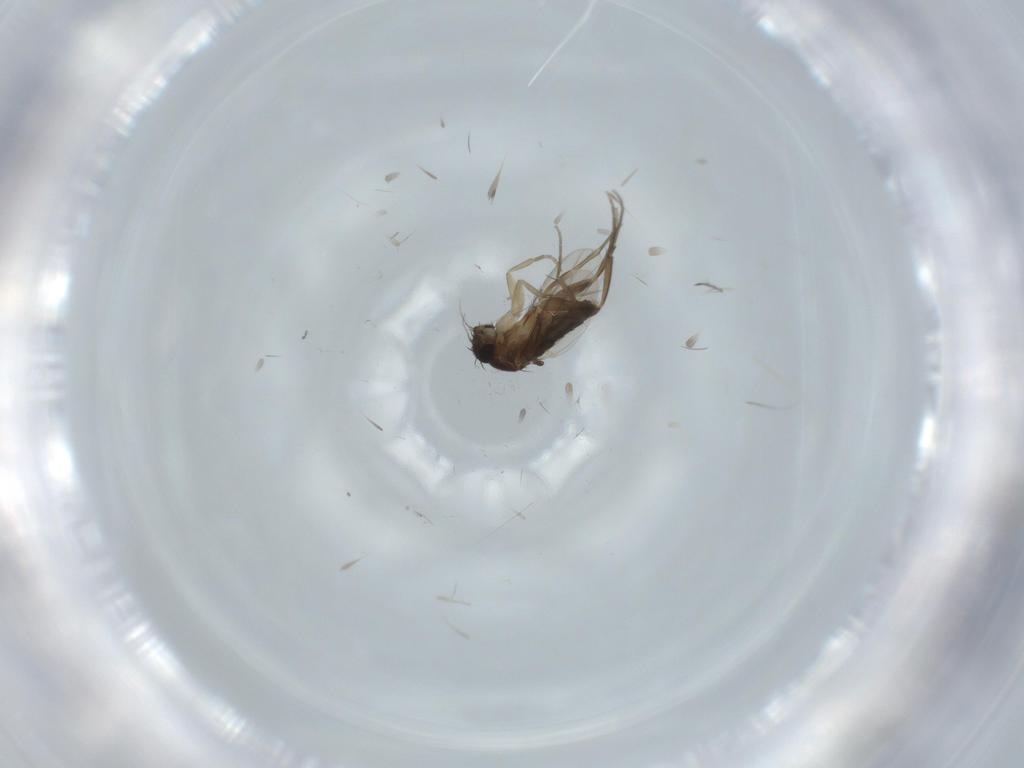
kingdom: Animalia
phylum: Arthropoda
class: Insecta
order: Diptera
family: Phoridae
